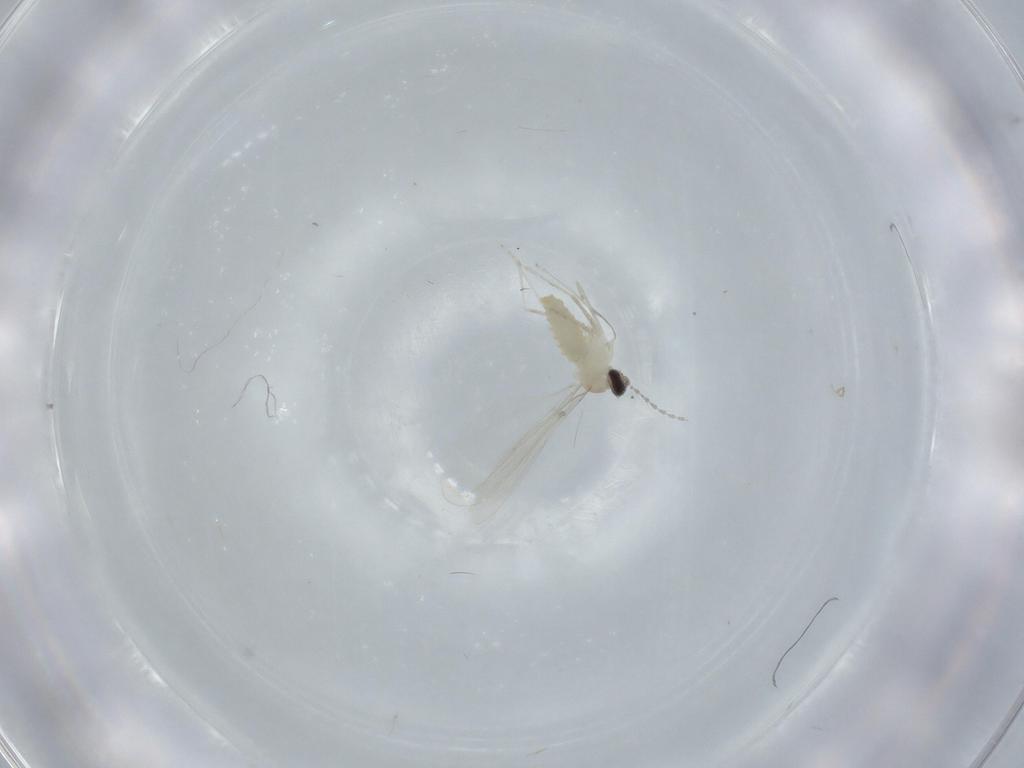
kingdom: Animalia
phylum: Arthropoda
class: Insecta
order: Diptera
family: Cecidomyiidae
